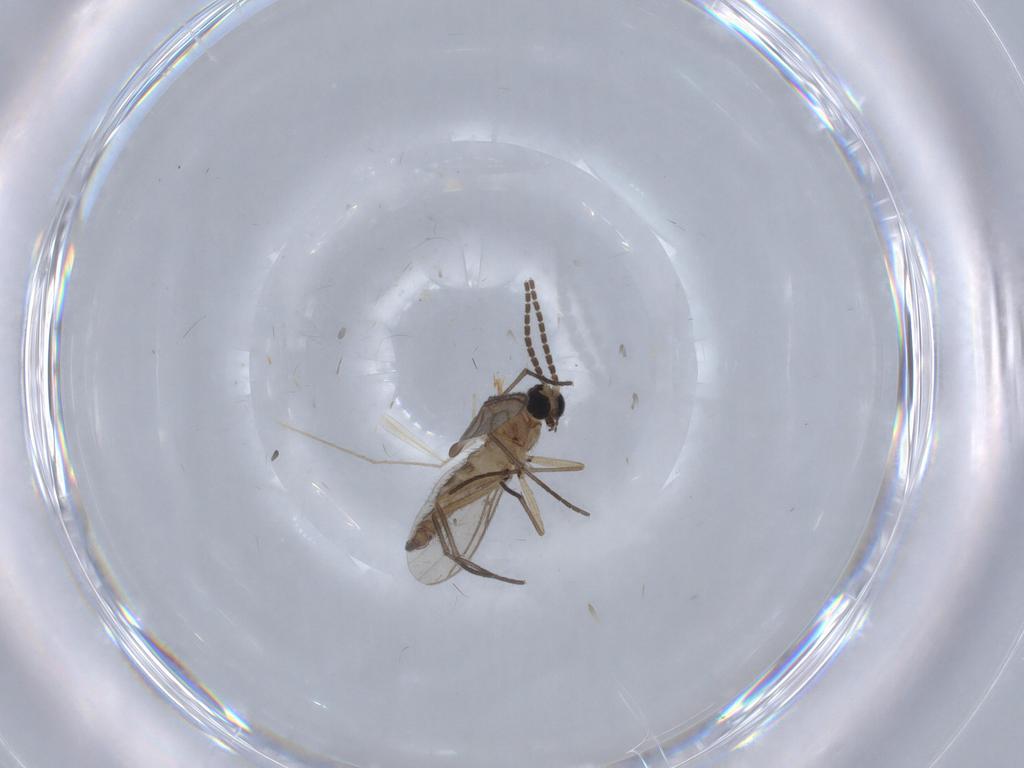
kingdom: Animalia
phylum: Arthropoda
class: Insecta
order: Diptera
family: Sciaridae
